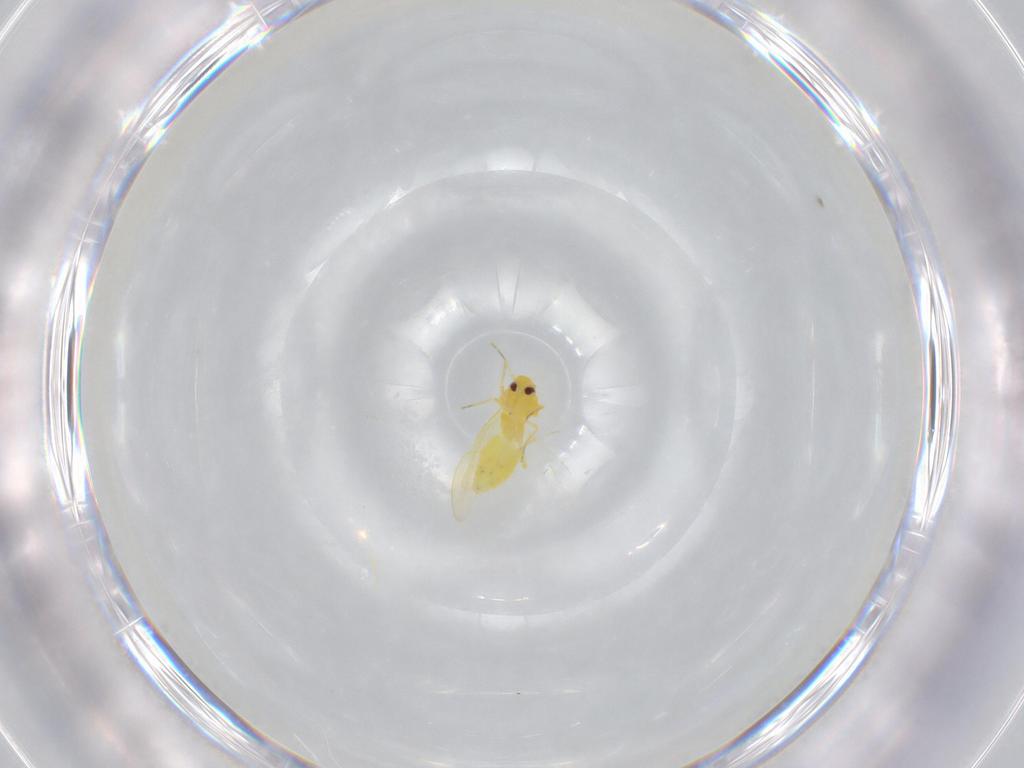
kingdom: Animalia
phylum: Arthropoda
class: Insecta
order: Hemiptera
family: Aleyrodidae
